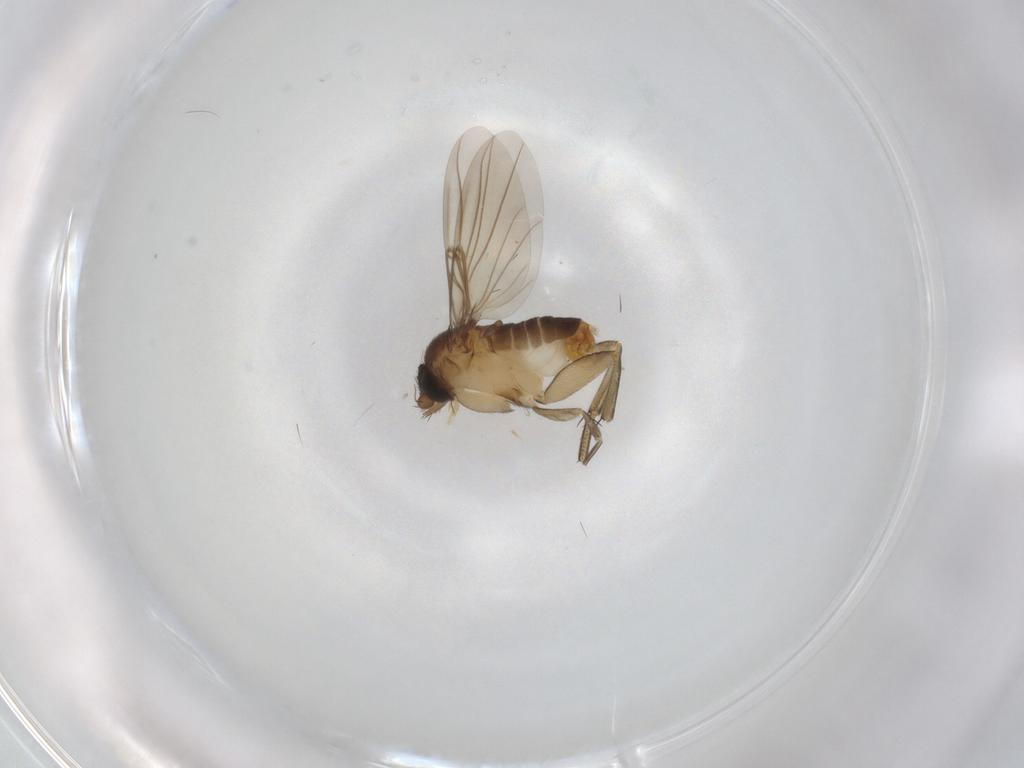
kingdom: Animalia
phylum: Arthropoda
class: Insecta
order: Diptera
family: Phoridae
